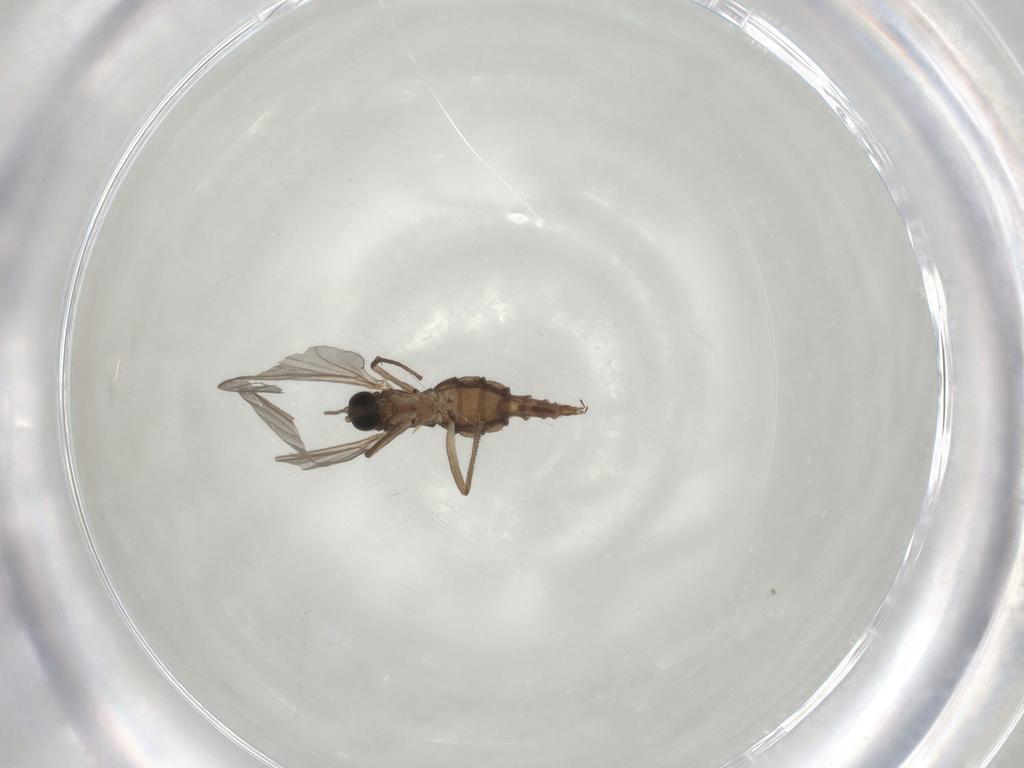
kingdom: Animalia
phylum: Arthropoda
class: Insecta
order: Diptera
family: Sciaridae
